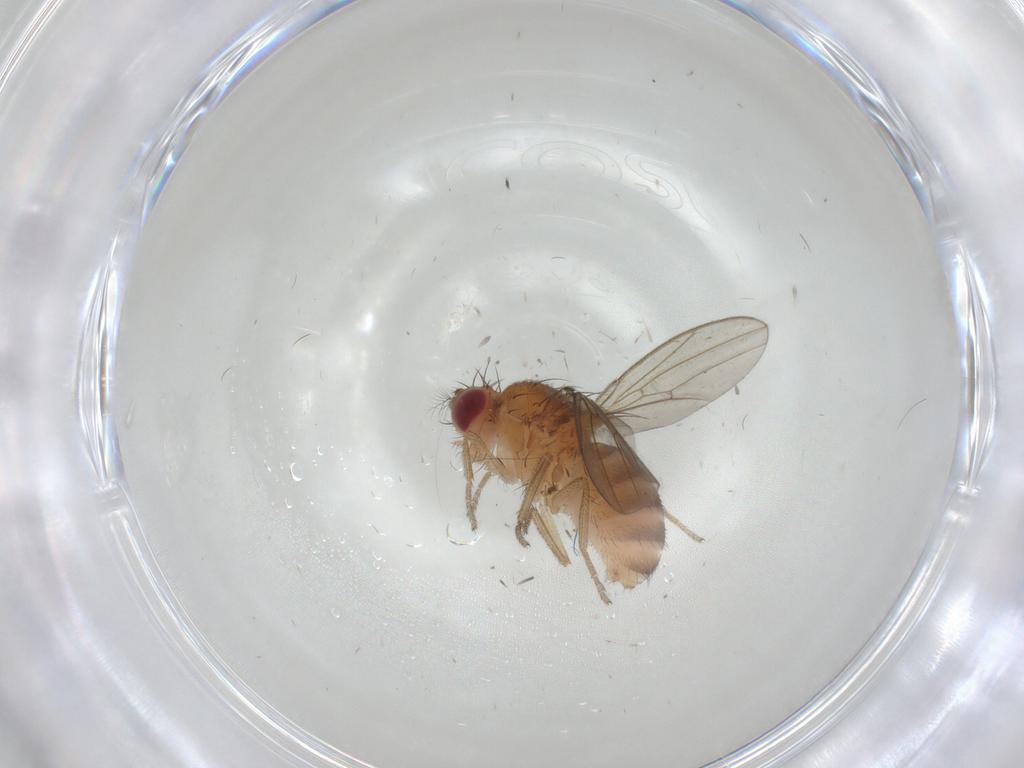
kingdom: Animalia
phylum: Arthropoda
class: Insecta
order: Diptera
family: Drosophilidae
